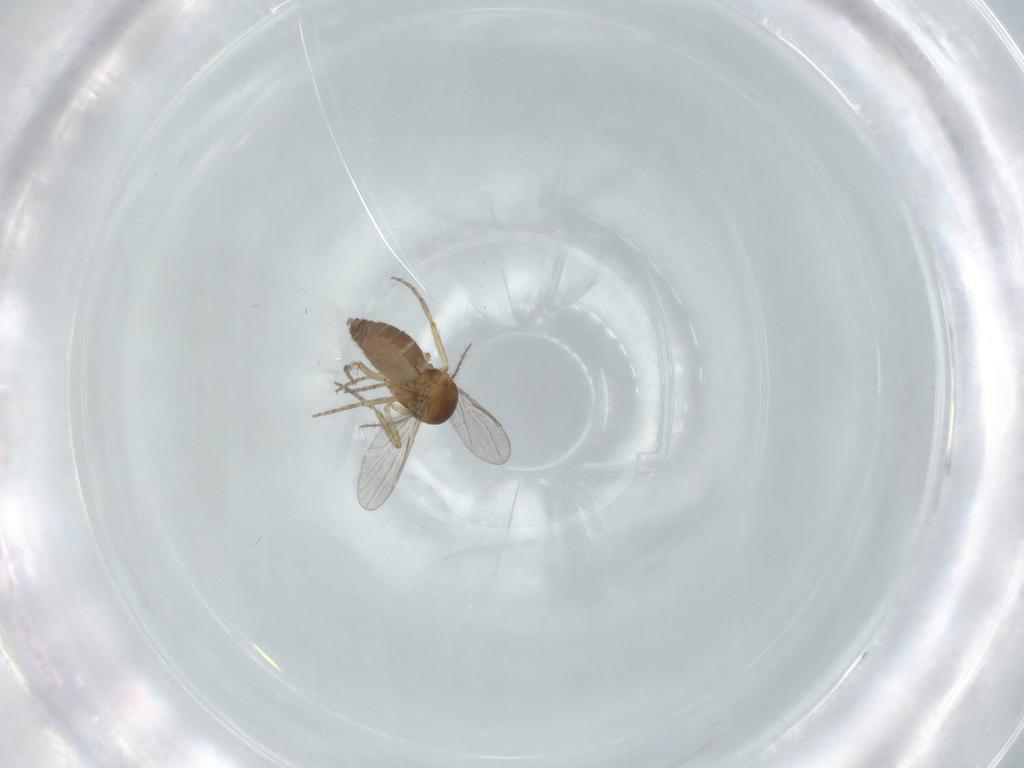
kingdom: Animalia
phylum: Arthropoda
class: Insecta
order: Diptera
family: Ceratopogonidae
